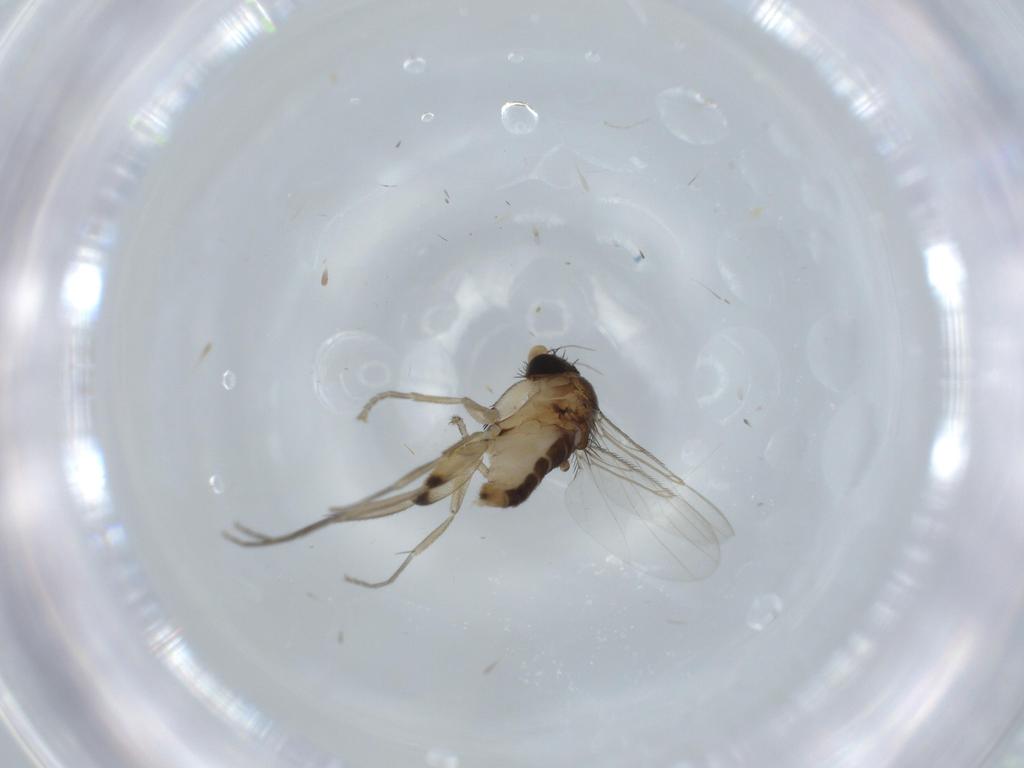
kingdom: Animalia
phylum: Arthropoda
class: Insecta
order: Diptera
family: Phoridae
